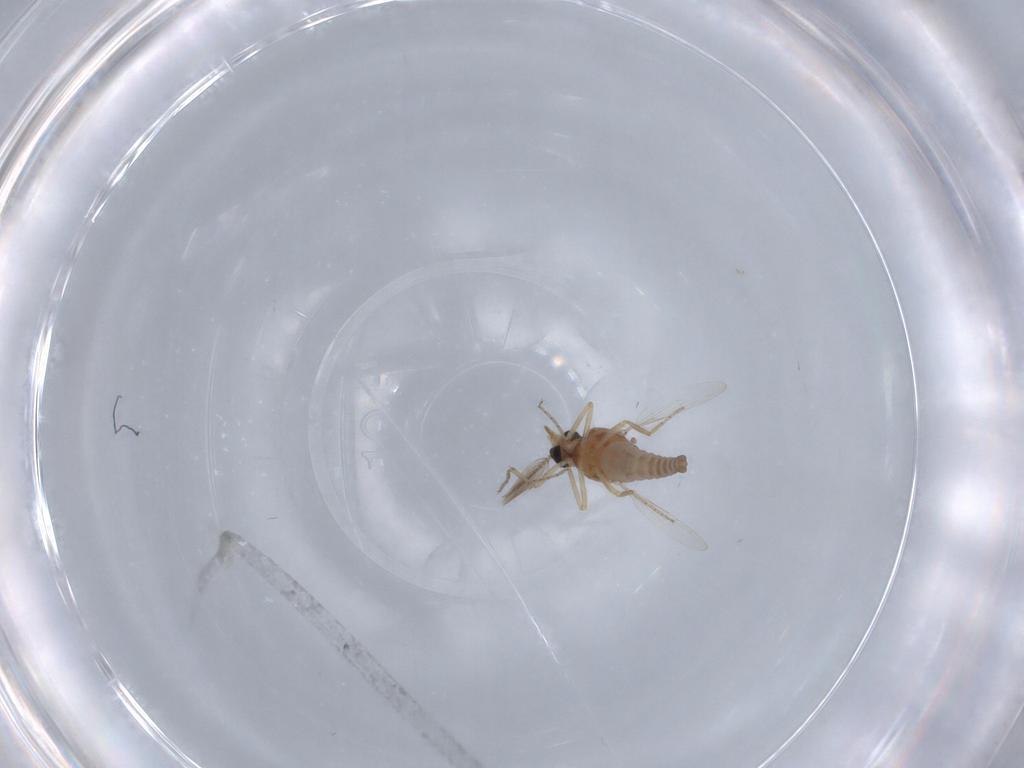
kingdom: Animalia
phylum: Arthropoda
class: Insecta
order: Diptera
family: Ceratopogonidae
